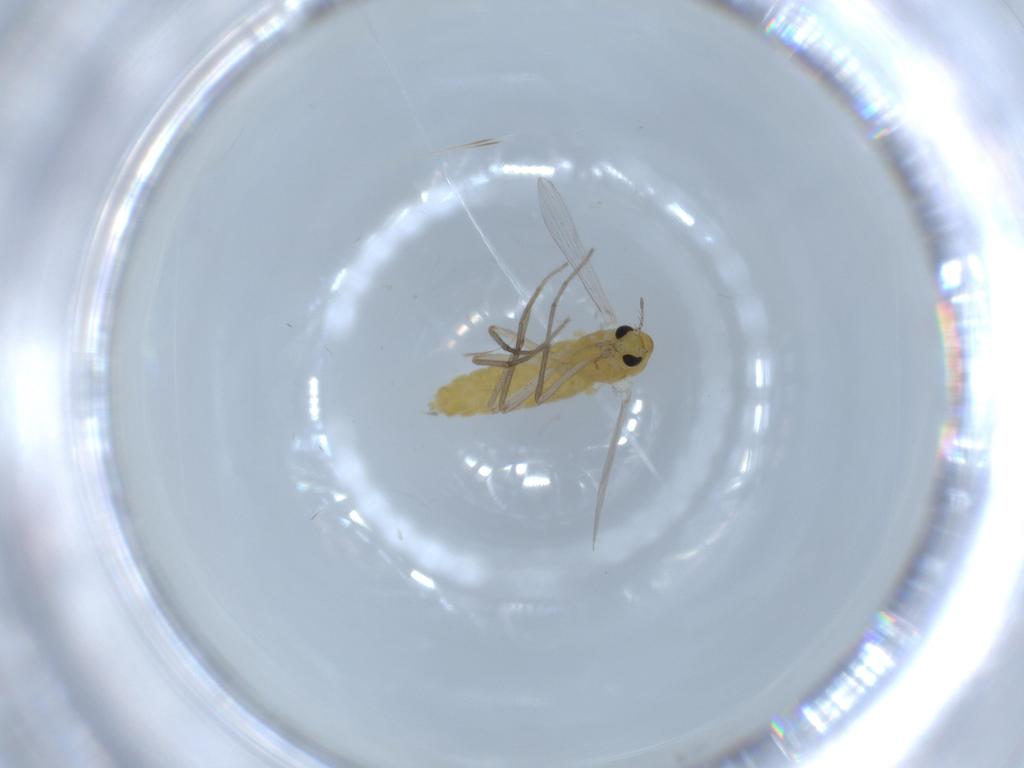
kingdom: Animalia
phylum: Arthropoda
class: Insecta
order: Diptera
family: Chironomidae
